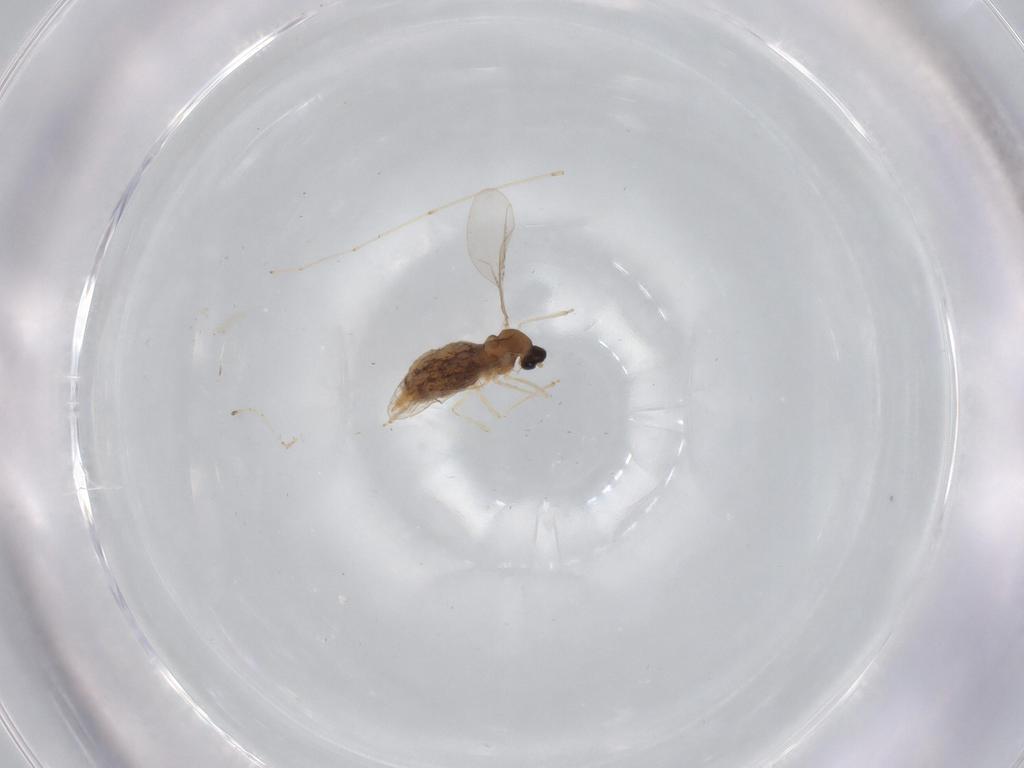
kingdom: Animalia
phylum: Arthropoda
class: Insecta
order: Diptera
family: Cecidomyiidae
